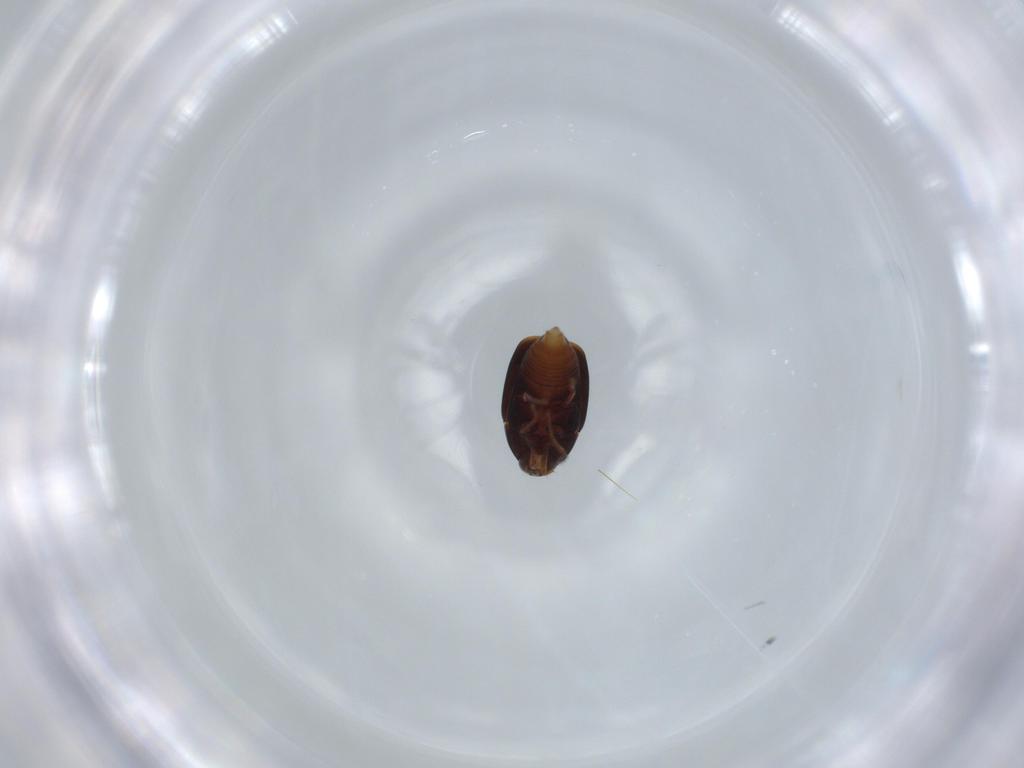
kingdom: Animalia
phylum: Arthropoda
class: Insecta
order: Coleoptera
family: Staphylinidae
